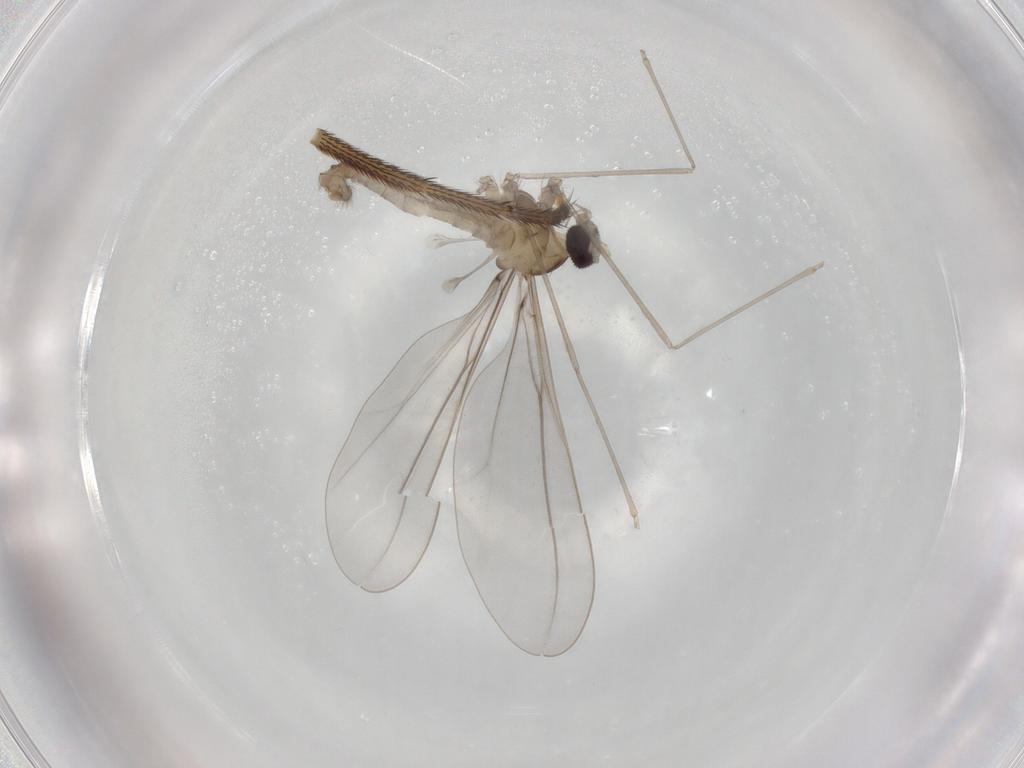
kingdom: Animalia
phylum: Arthropoda
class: Insecta
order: Diptera
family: Cecidomyiidae
